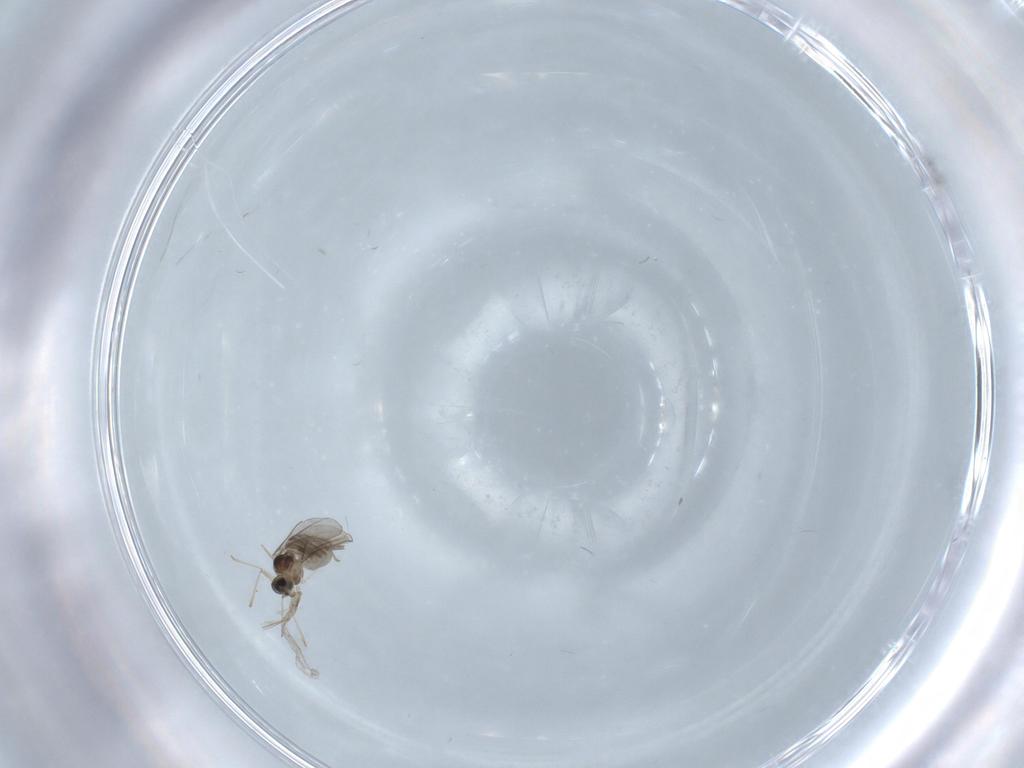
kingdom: Animalia
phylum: Arthropoda
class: Insecta
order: Diptera
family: Cecidomyiidae
